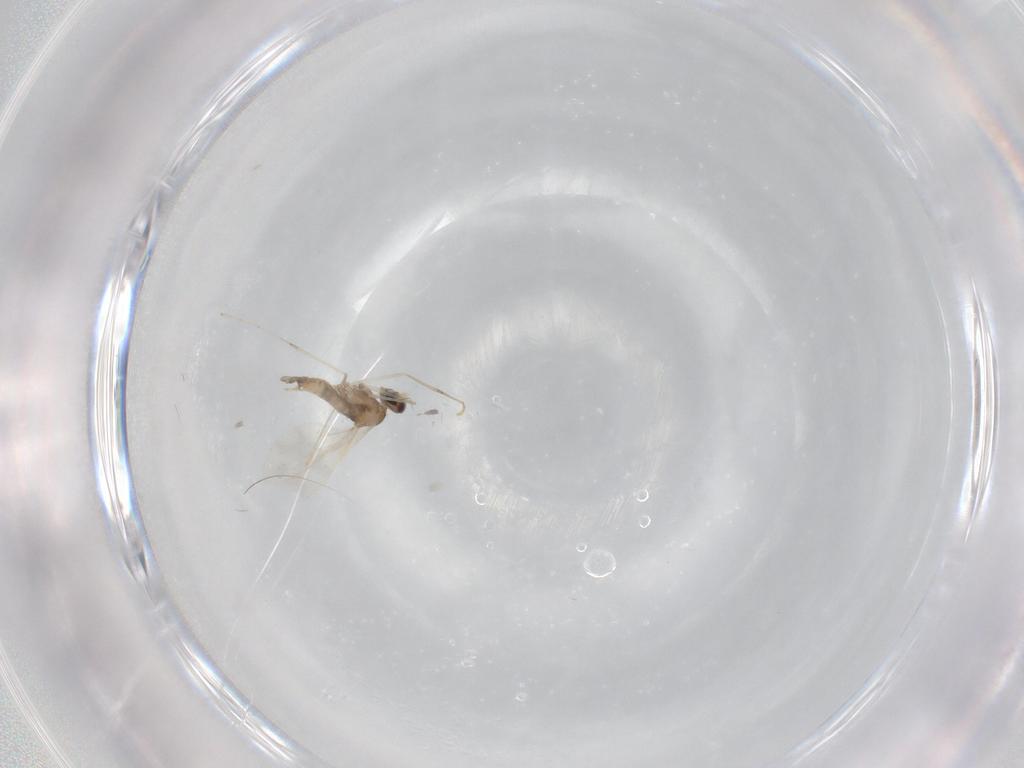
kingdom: Animalia
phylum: Arthropoda
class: Insecta
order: Diptera
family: Cecidomyiidae
